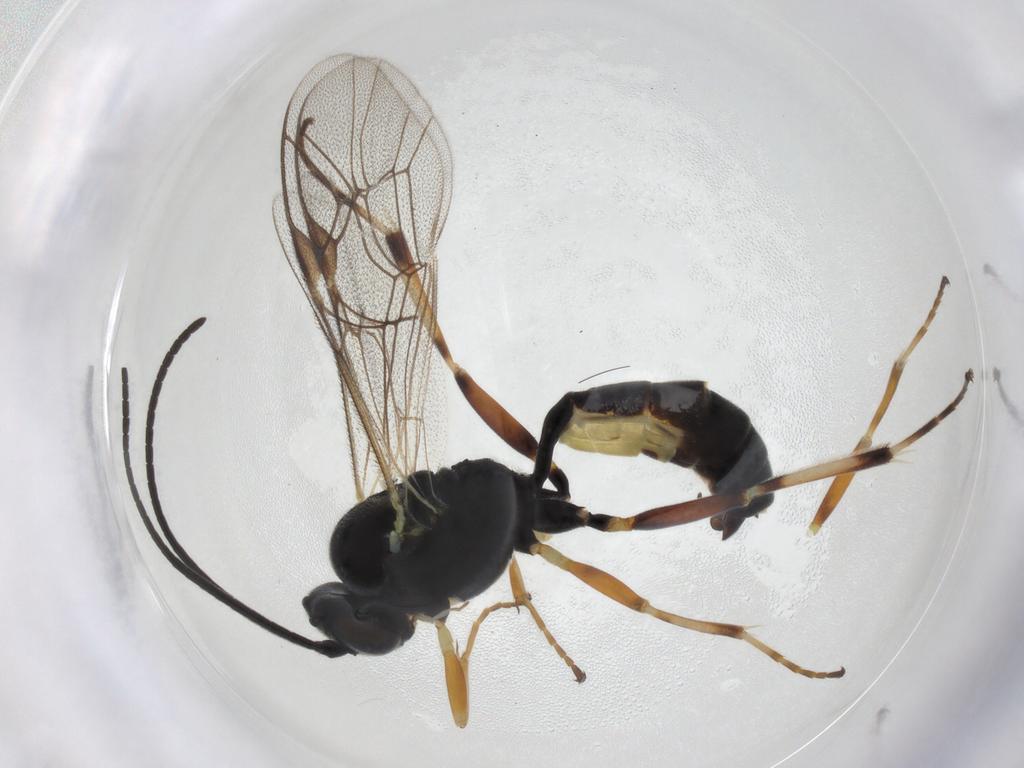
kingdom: Animalia
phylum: Arthropoda
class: Insecta
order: Hymenoptera
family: Ichneumonidae
